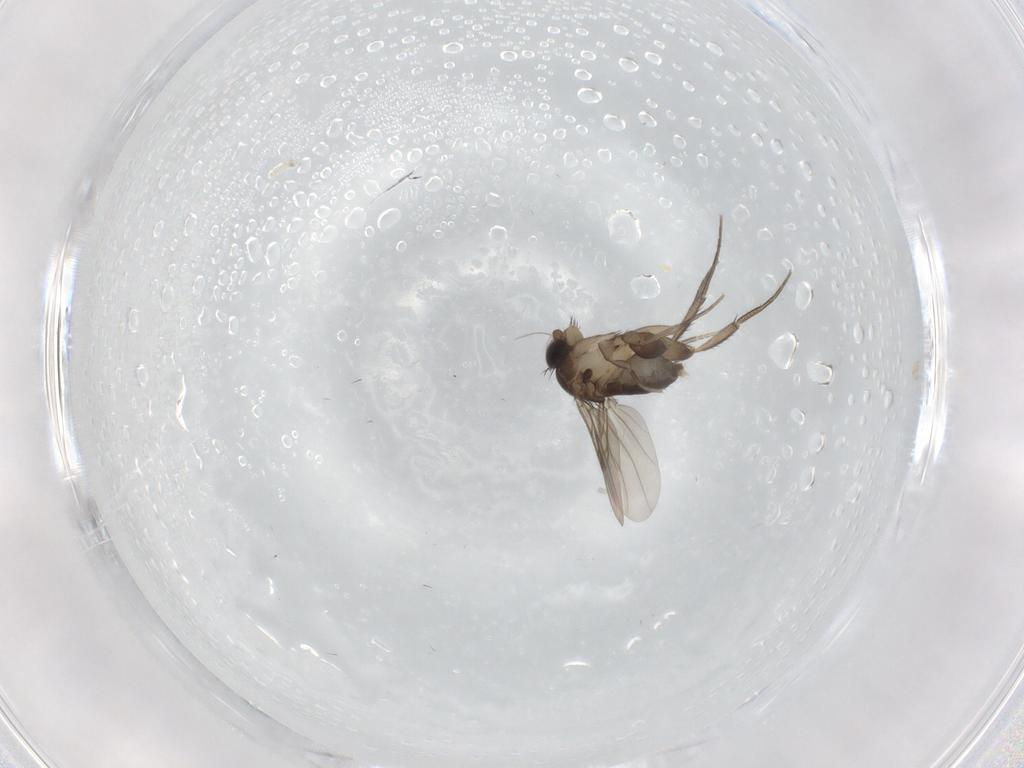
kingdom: Animalia
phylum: Arthropoda
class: Insecta
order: Diptera
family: Phoridae
